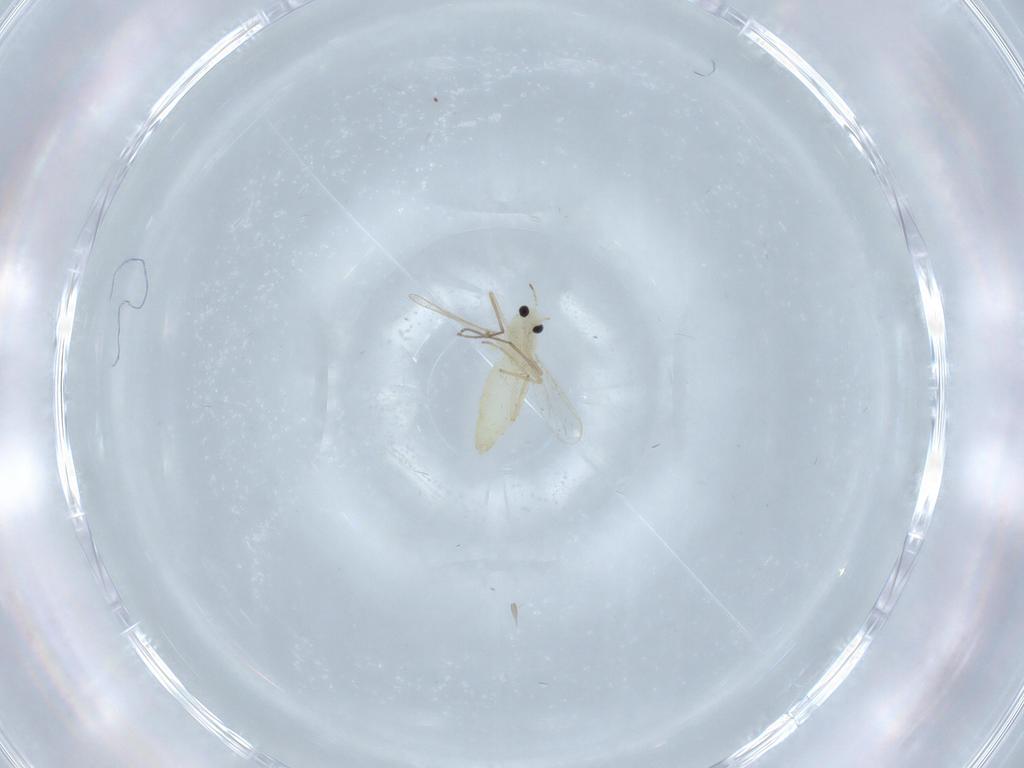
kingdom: Animalia
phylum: Arthropoda
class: Insecta
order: Diptera
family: Chironomidae
